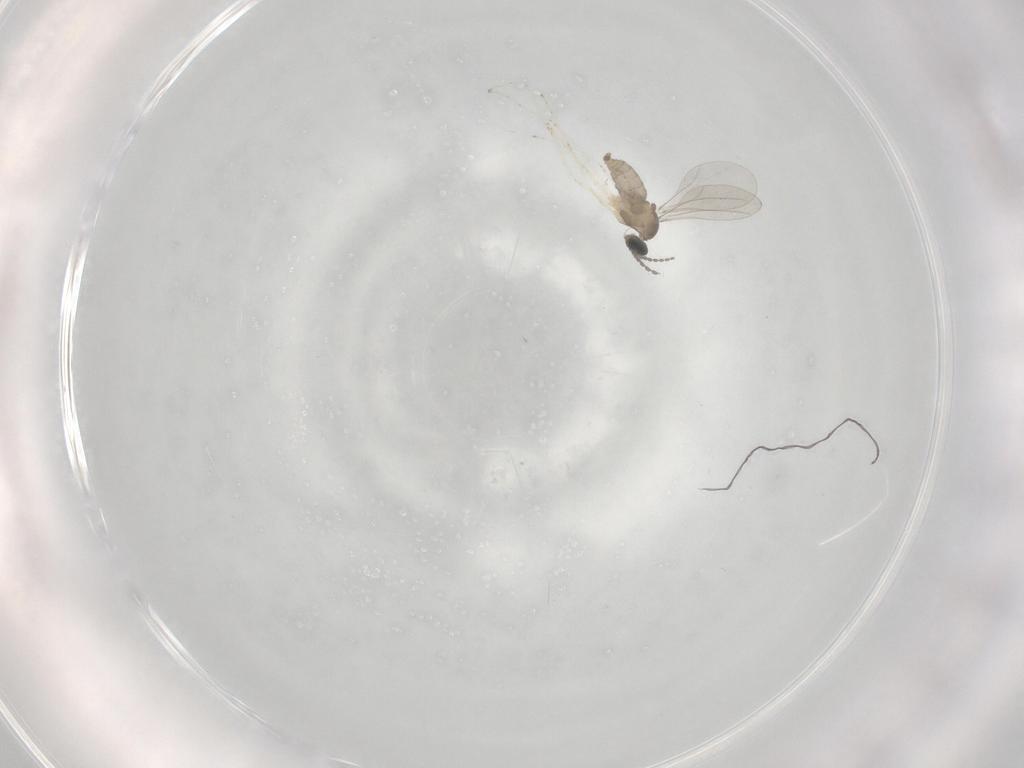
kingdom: Animalia
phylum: Arthropoda
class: Insecta
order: Diptera
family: Cecidomyiidae
